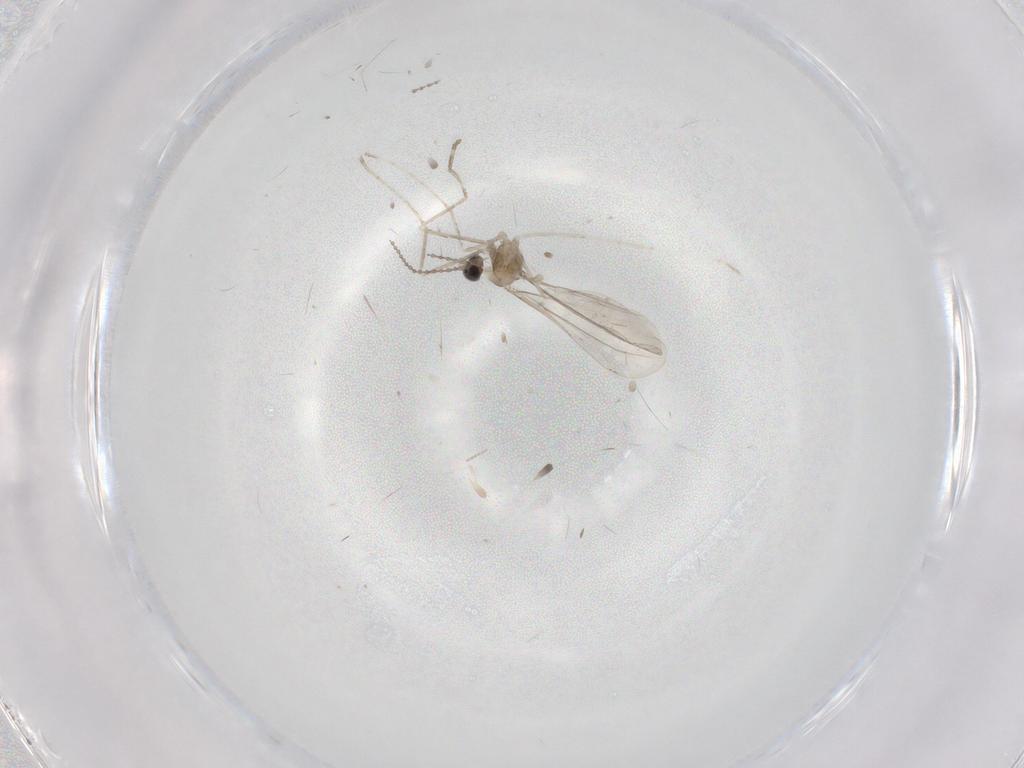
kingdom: Animalia
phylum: Arthropoda
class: Insecta
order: Diptera
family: Cecidomyiidae
